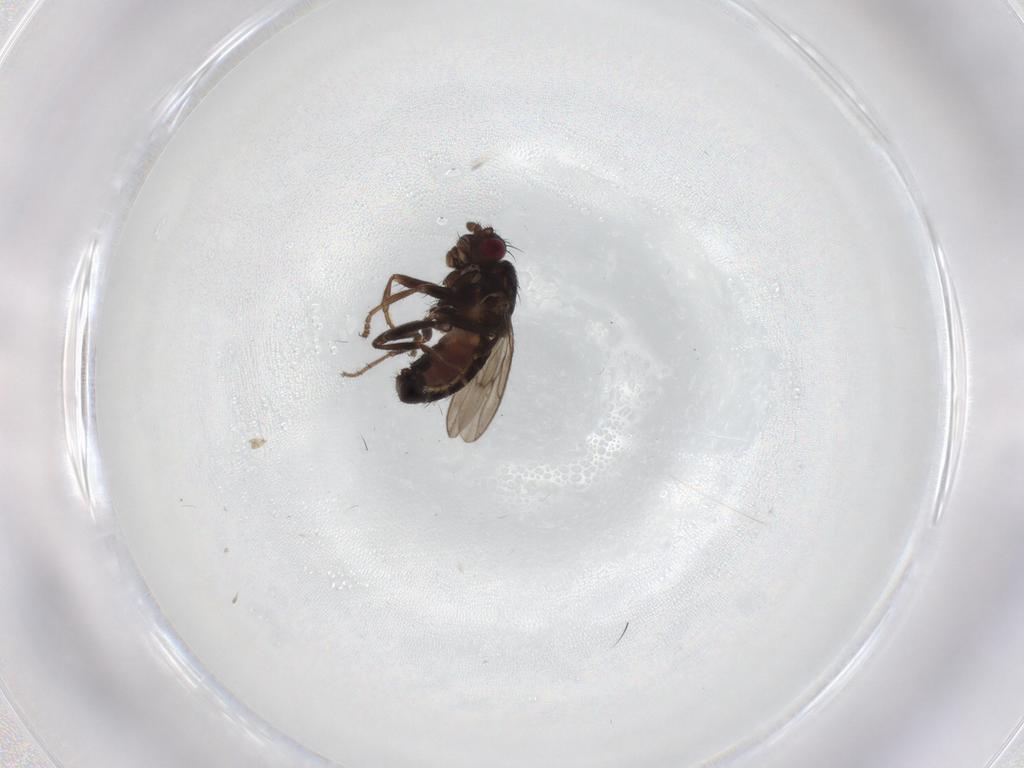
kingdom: Animalia
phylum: Arthropoda
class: Insecta
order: Diptera
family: Sphaeroceridae
